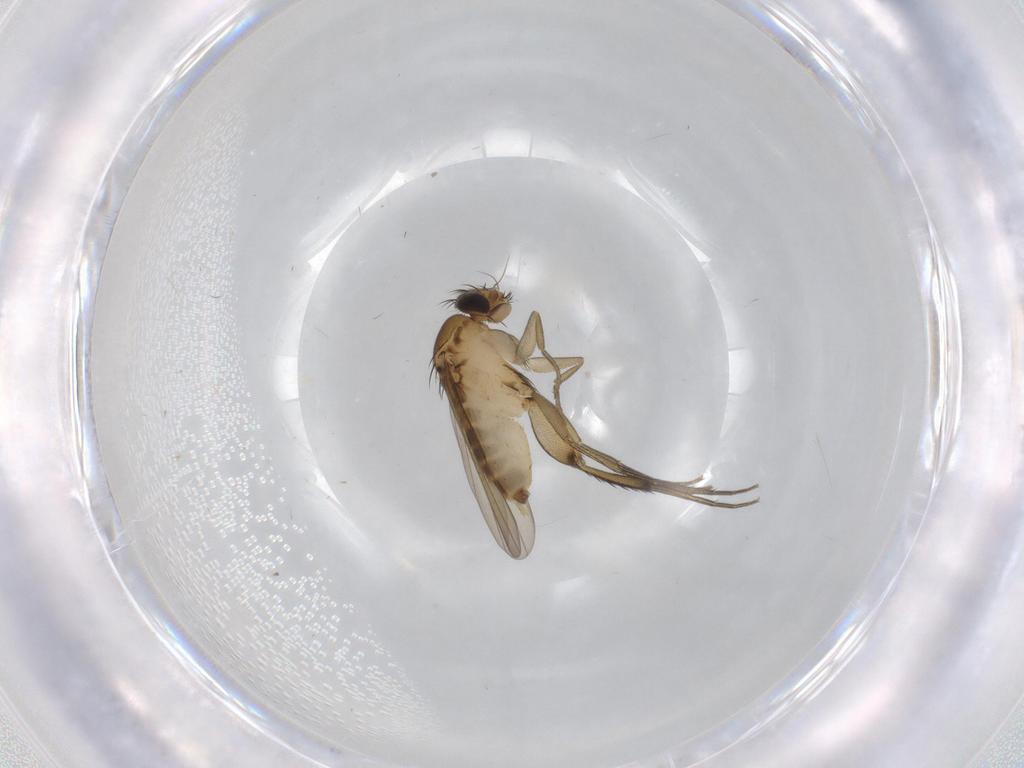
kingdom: Animalia
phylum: Arthropoda
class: Insecta
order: Diptera
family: Phoridae
